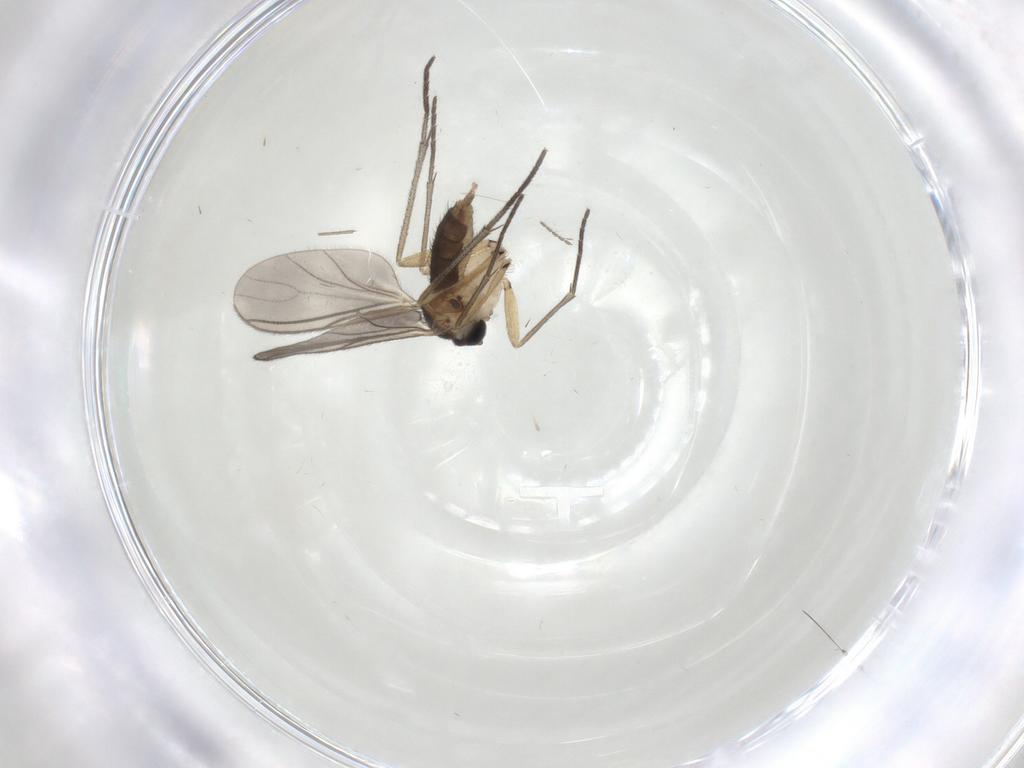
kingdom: Animalia
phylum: Arthropoda
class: Insecta
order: Diptera
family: Sciaridae
